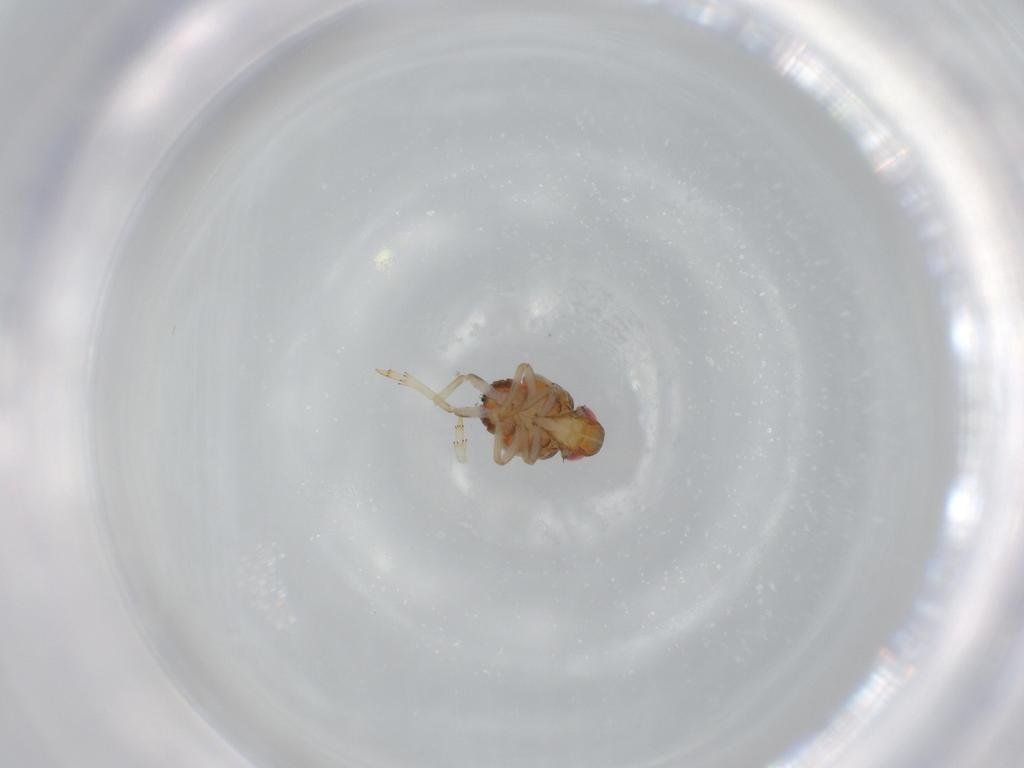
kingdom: Animalia
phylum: Arthropoda
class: Insecta
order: Hemiptera
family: Issidae
